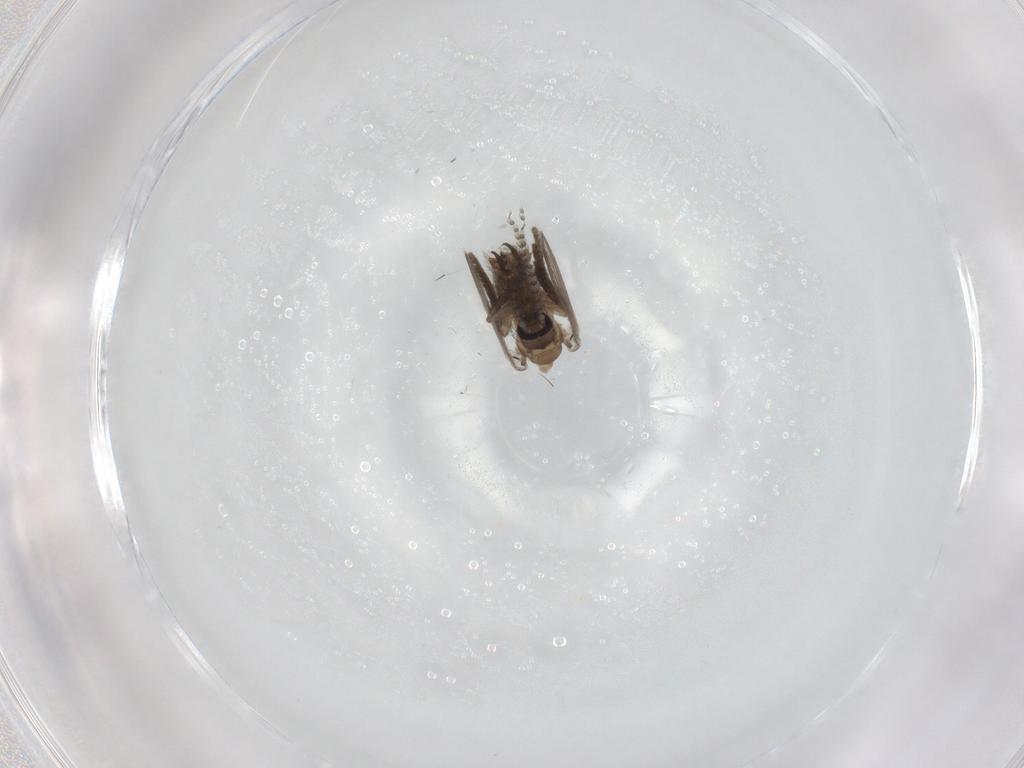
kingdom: Animalia
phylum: Arthropoda
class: Insecta
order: Diptera
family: Psychodidae
